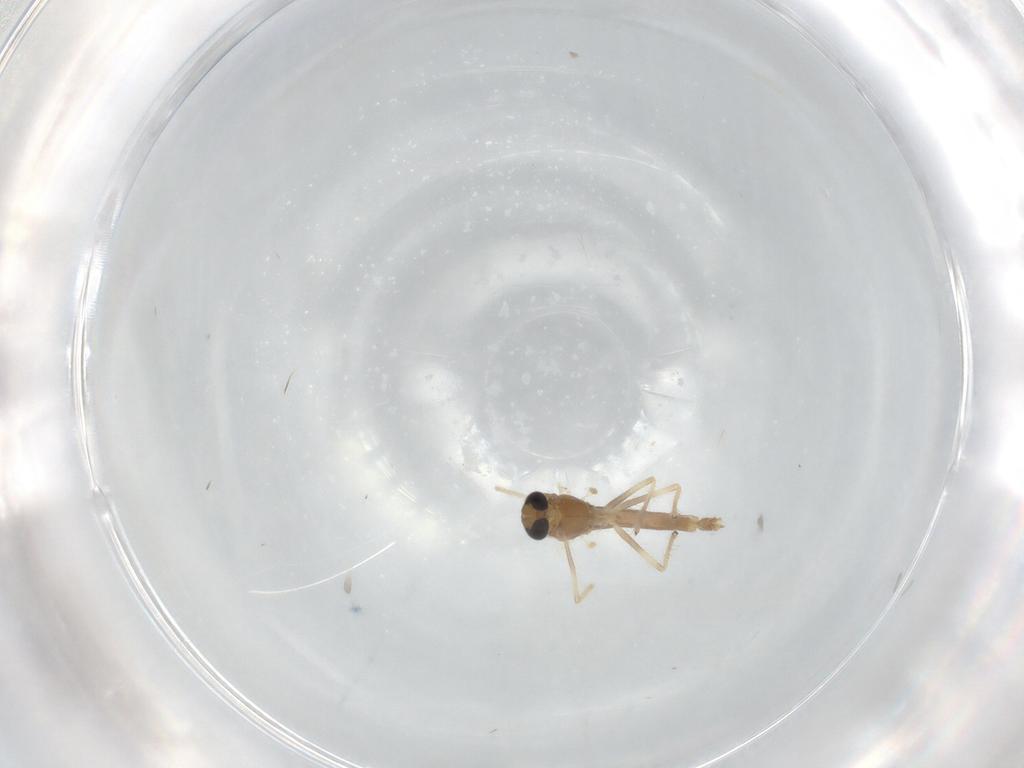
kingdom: Animalia
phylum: Arthropoda
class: Insecta
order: Diptera
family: Chironomidae
